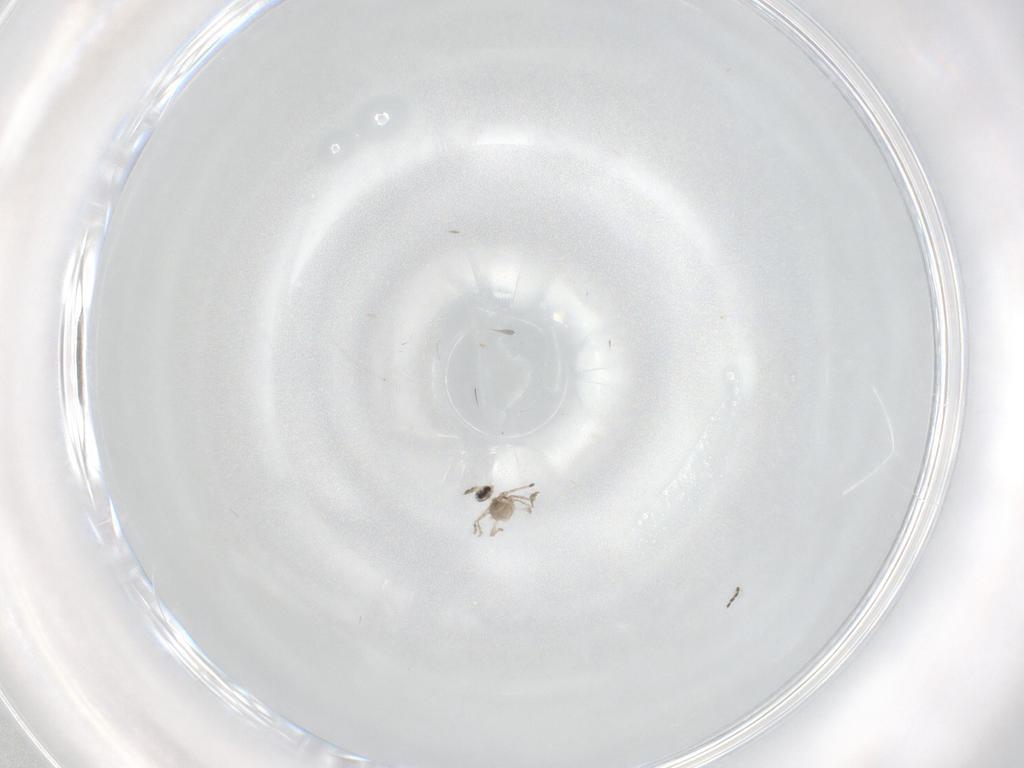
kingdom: Animalia
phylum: Arthropoda
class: Insecta
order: Diptera
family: Cecidomyiidae
